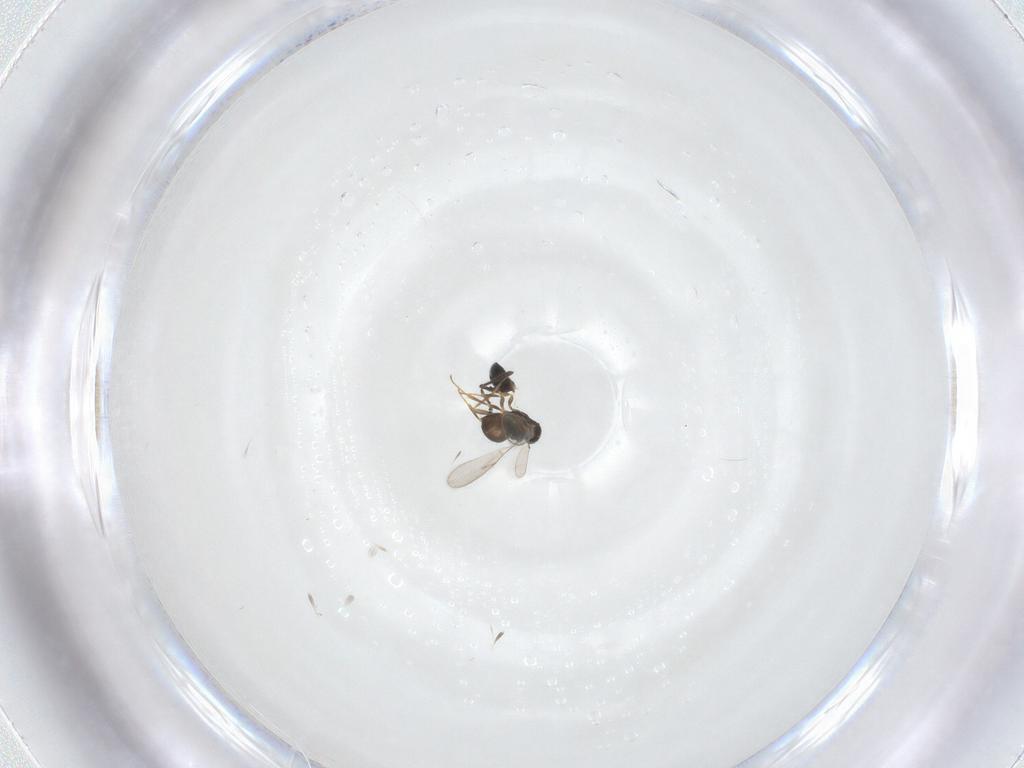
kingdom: Animalia
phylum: Arthropoda
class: Insecta
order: Hymenoptera
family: Scelionidae
